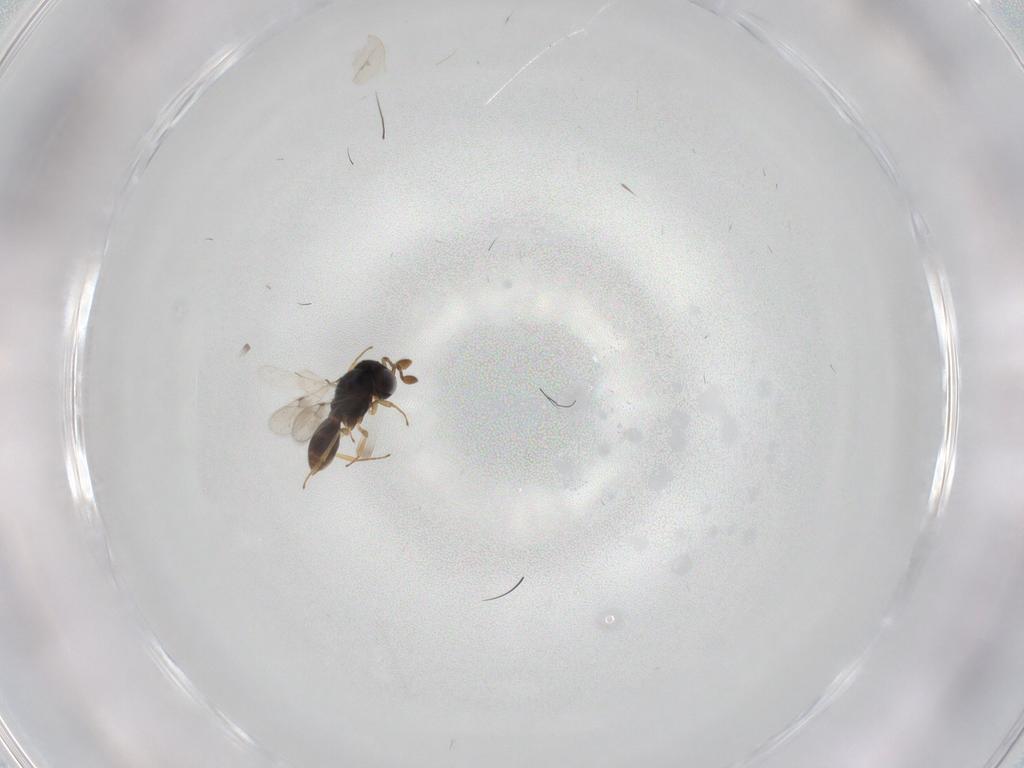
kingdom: Animalia
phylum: Arthropoda
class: Insecta
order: Hymenoptera
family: Scelionidae
